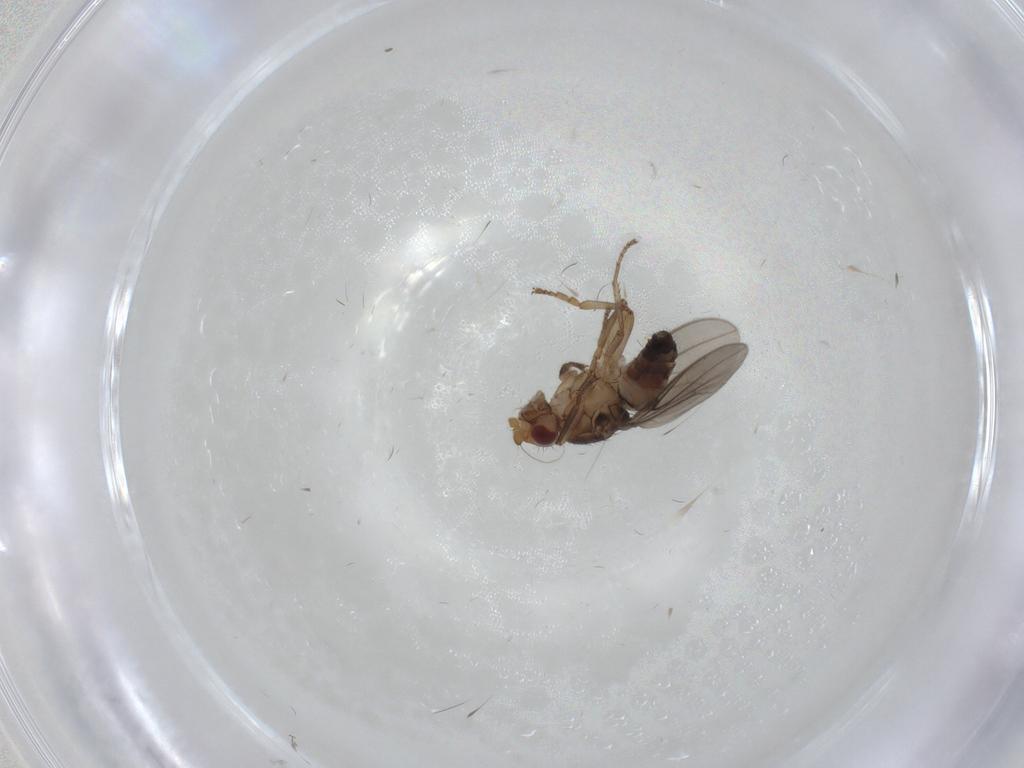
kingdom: Animalia
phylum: Arthropoda
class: Insecta
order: Diptera
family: Sphaeroceridae
